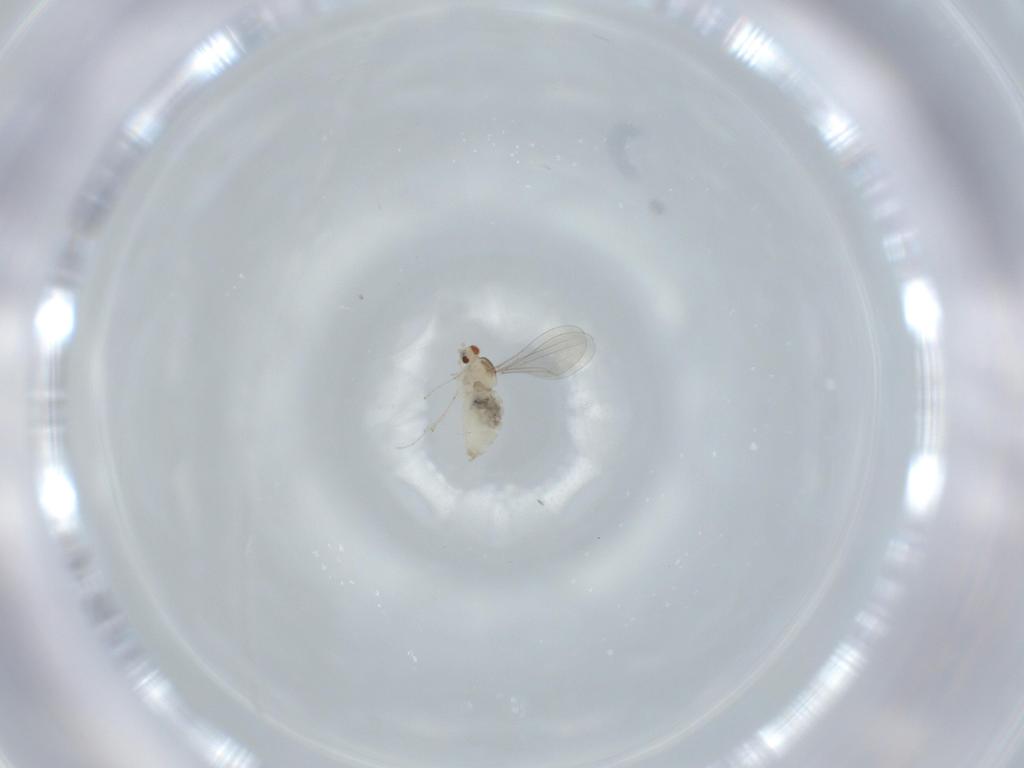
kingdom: Animalia
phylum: Arthropoda
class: Insecta
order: Diptera
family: Cecidomyiidae
